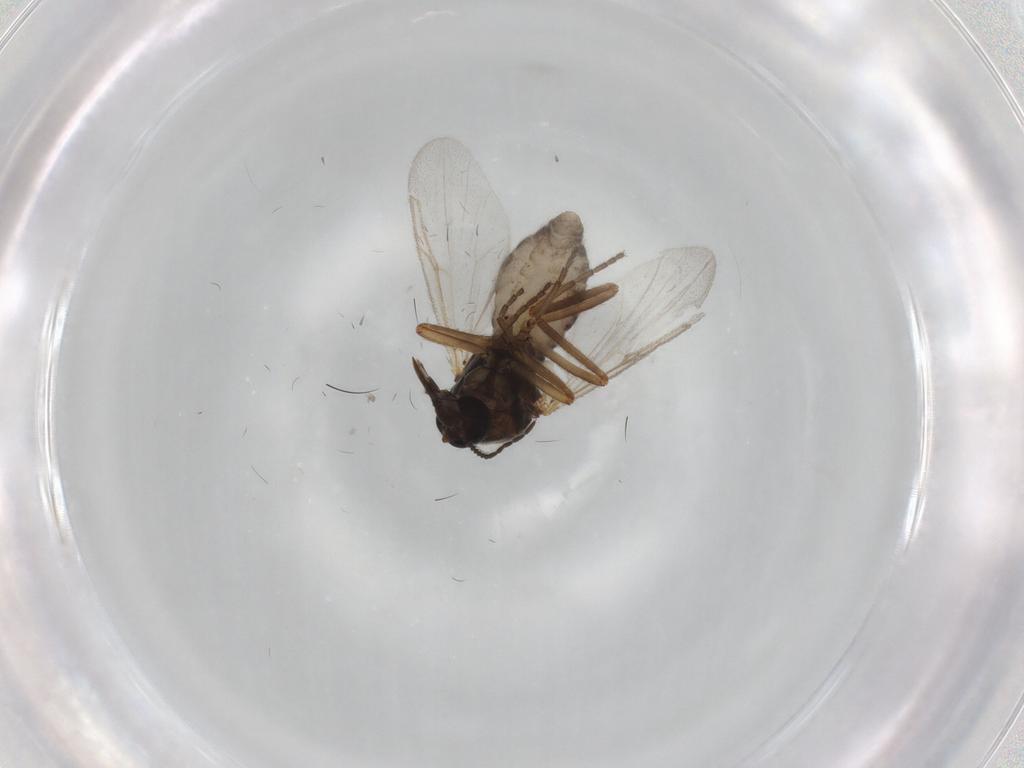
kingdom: Animalia
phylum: Arthropoda
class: Insecta
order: Diptera
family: Ceratopogonidae
